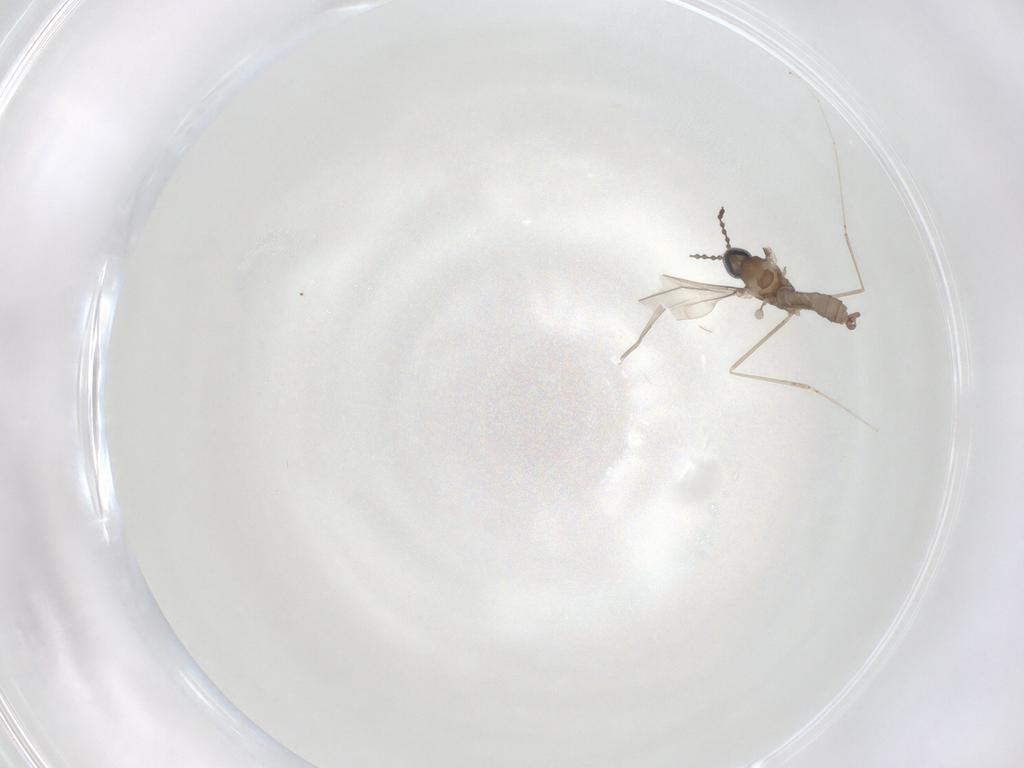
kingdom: Animalia
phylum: Arthropoda
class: Insecta
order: Diptera
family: Cecidomyiidae
